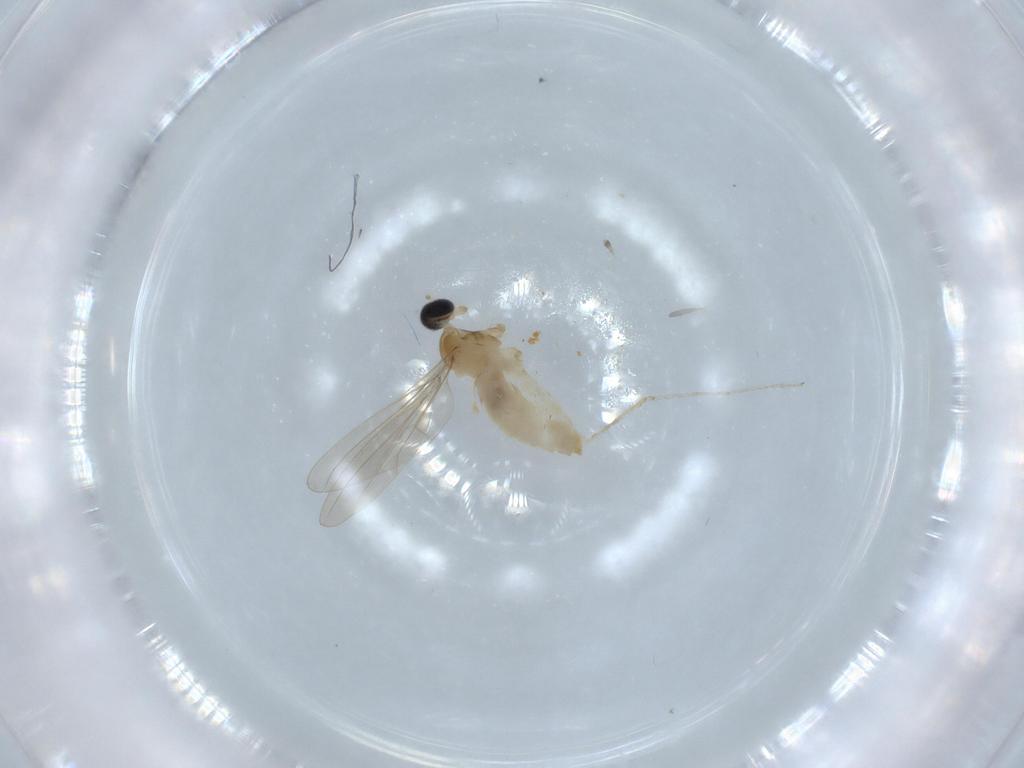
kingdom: Animalia
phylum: Arthropoda
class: Insecta
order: Diptera
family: Cecidomyiidae
